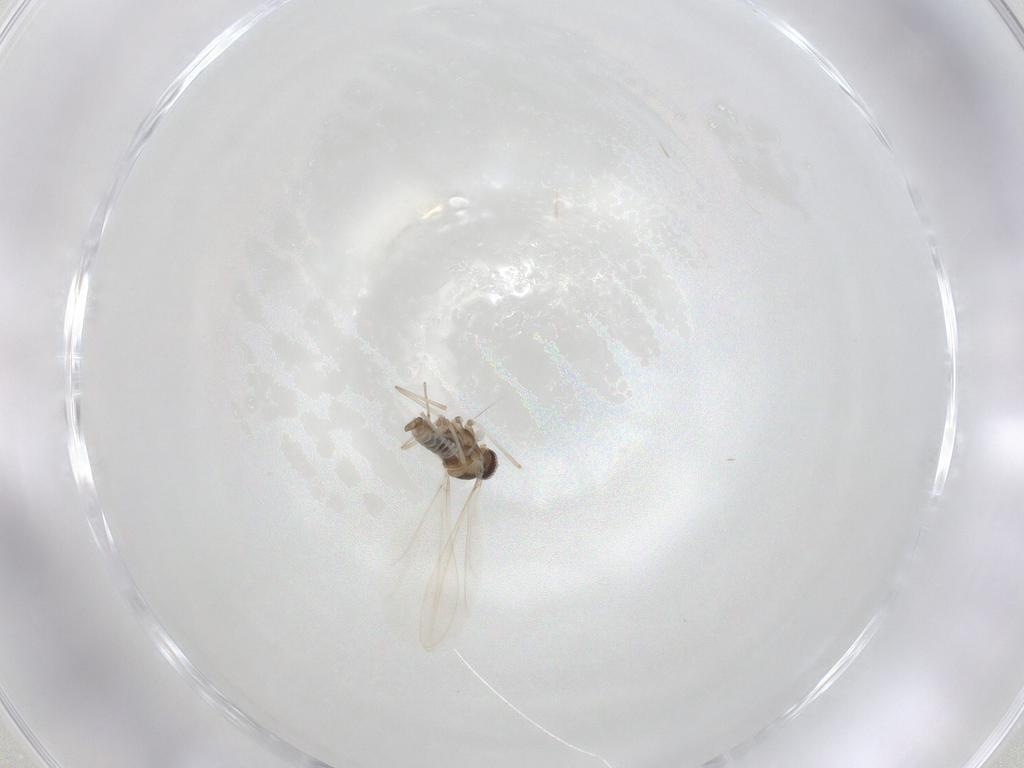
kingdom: Animalia
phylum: Arthropoda
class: Insecta
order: Diptera
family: Cecidomyiidae
